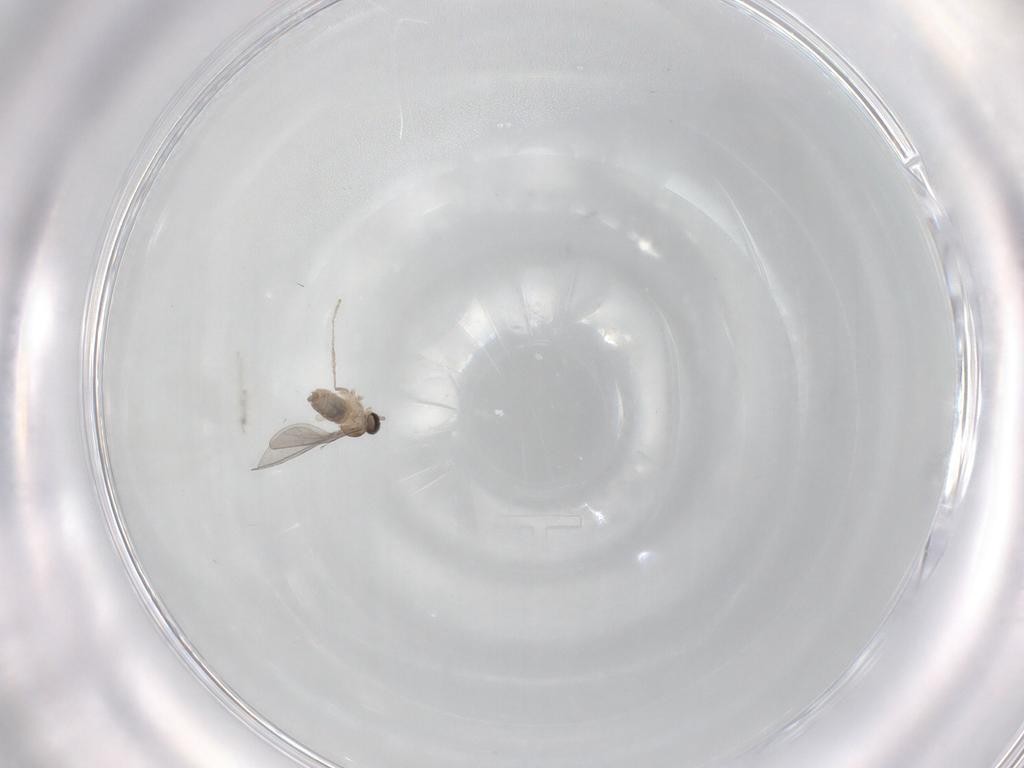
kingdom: Animalia
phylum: Arthropoda
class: Insecta
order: Diptera
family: Cecidomyiidae
